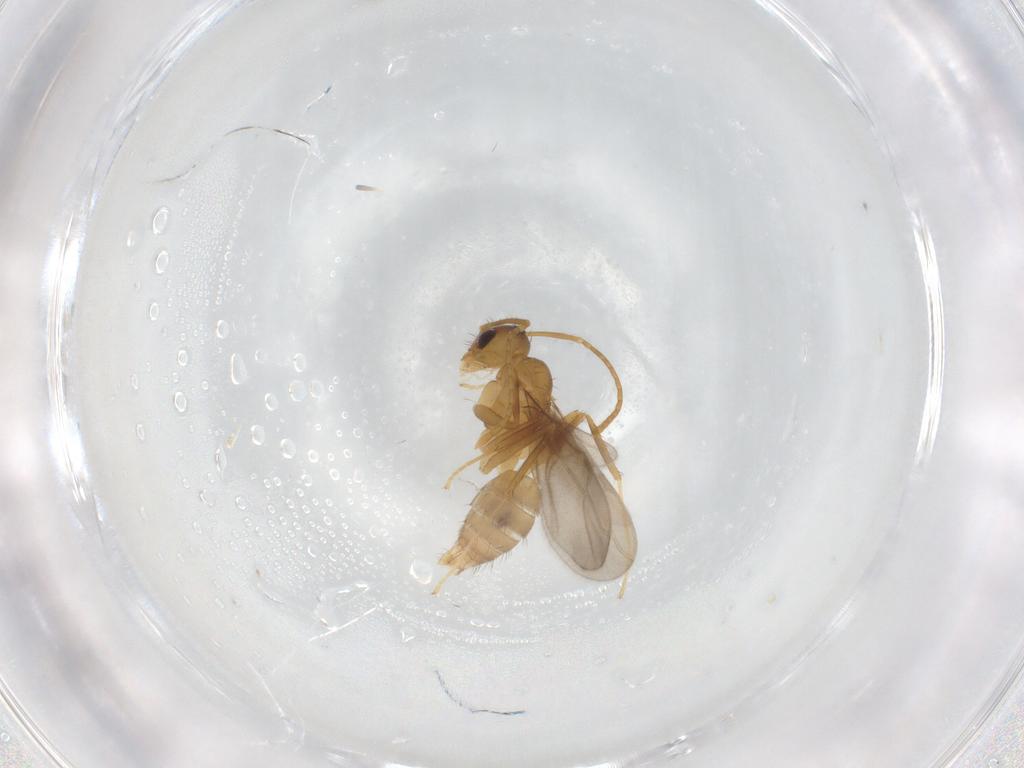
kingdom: Animalia
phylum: Arthropoda
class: Insecta
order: Hymenoptera
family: Formicidae
